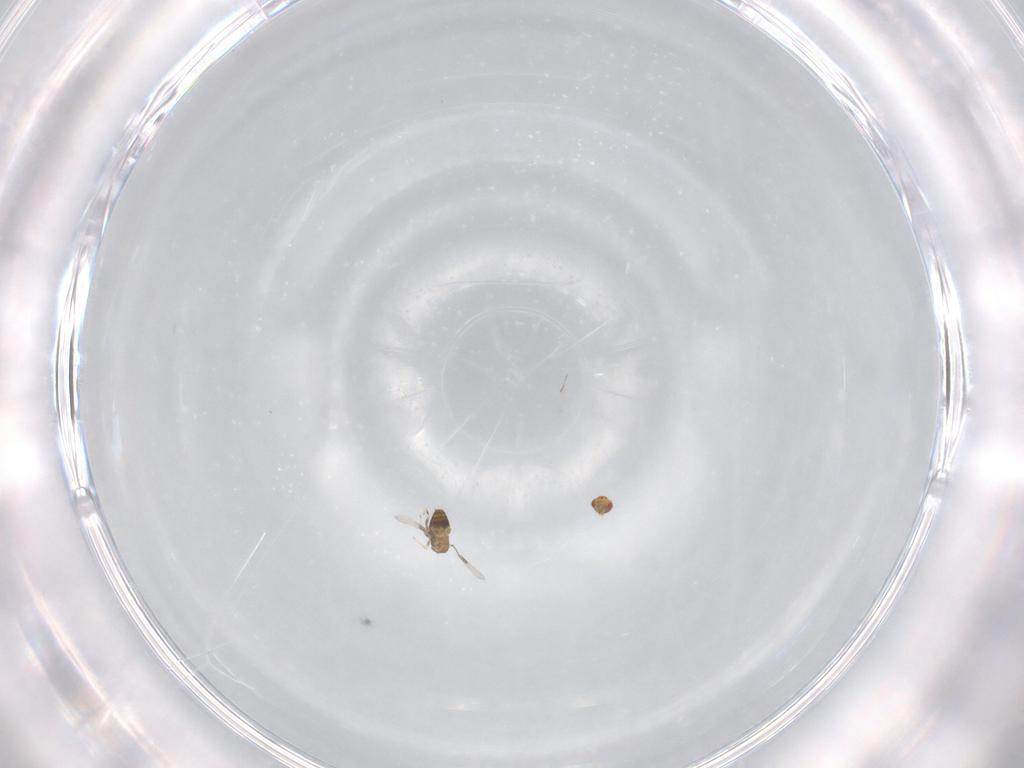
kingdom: Animalia
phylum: Arthropoda
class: Insecta
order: Hymenoptera
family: Trichogrammatidae
